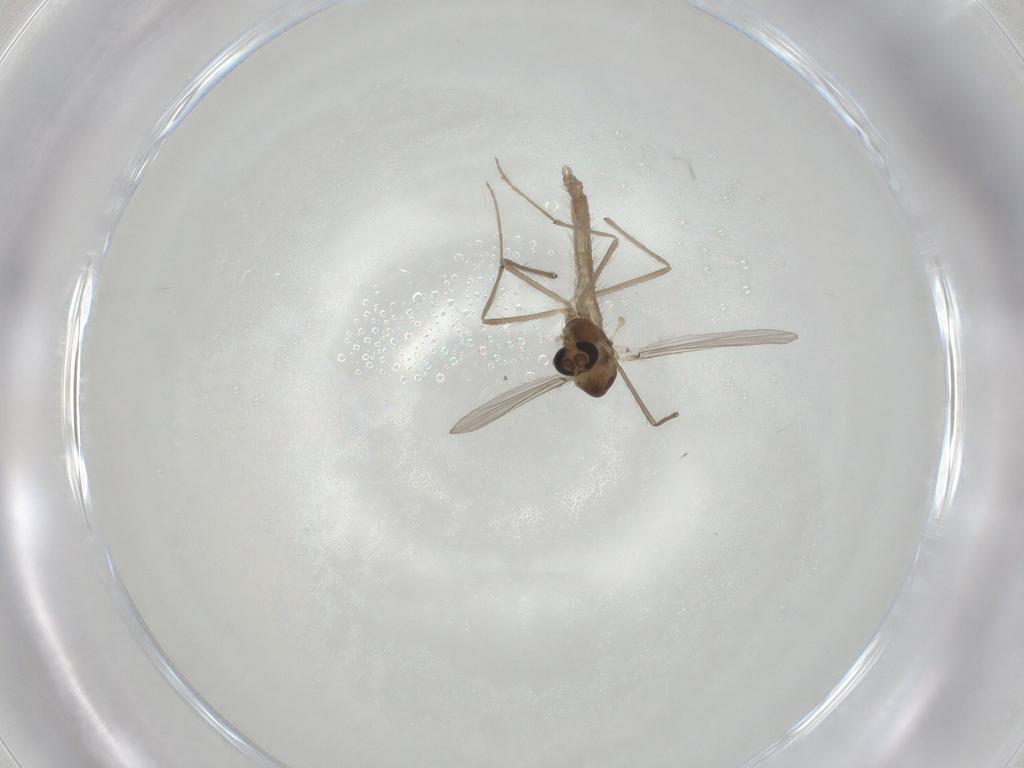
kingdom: Animalia
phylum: Arthropoda
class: Insecta
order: Diptera
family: Chironomidae
